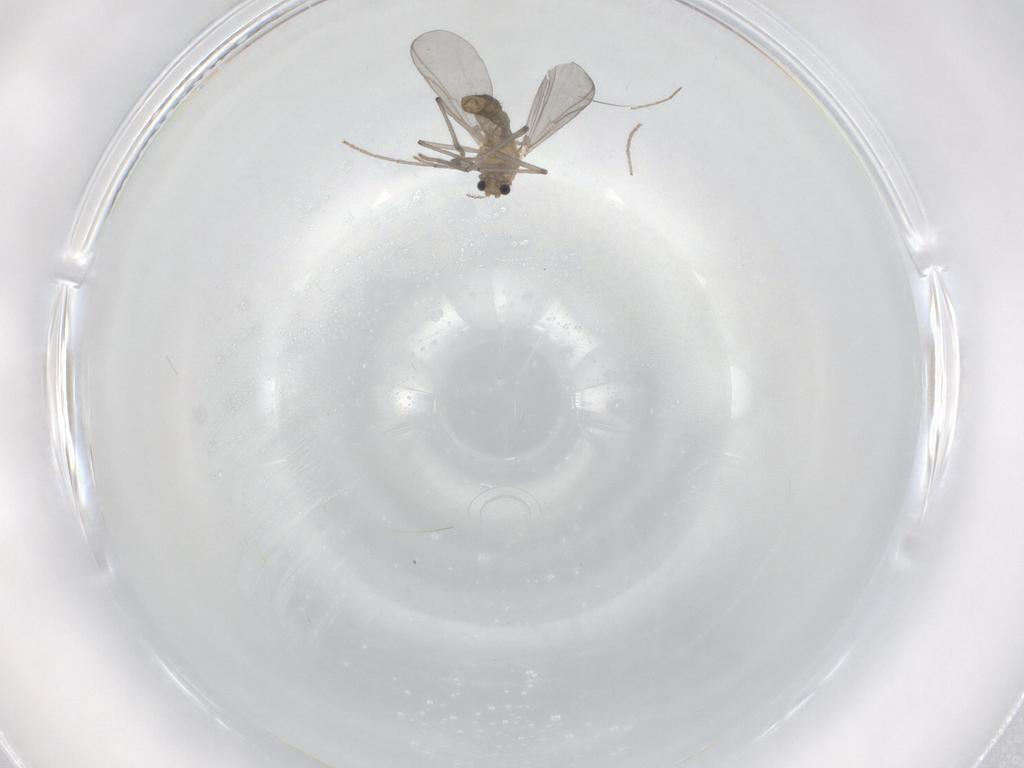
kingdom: Animalia
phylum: Arthropoda
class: Insecta
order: Diptera
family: Chironomidae
